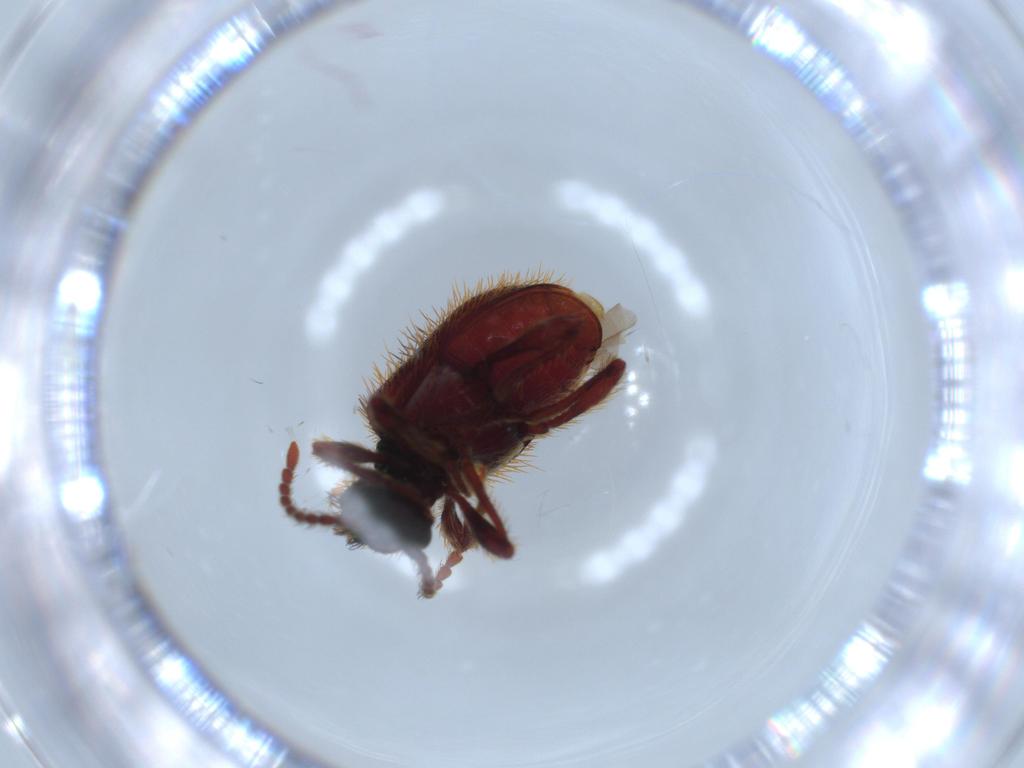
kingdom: Animalia
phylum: Arthropoda
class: Insecta
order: Coleoptera
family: Ptinidae
